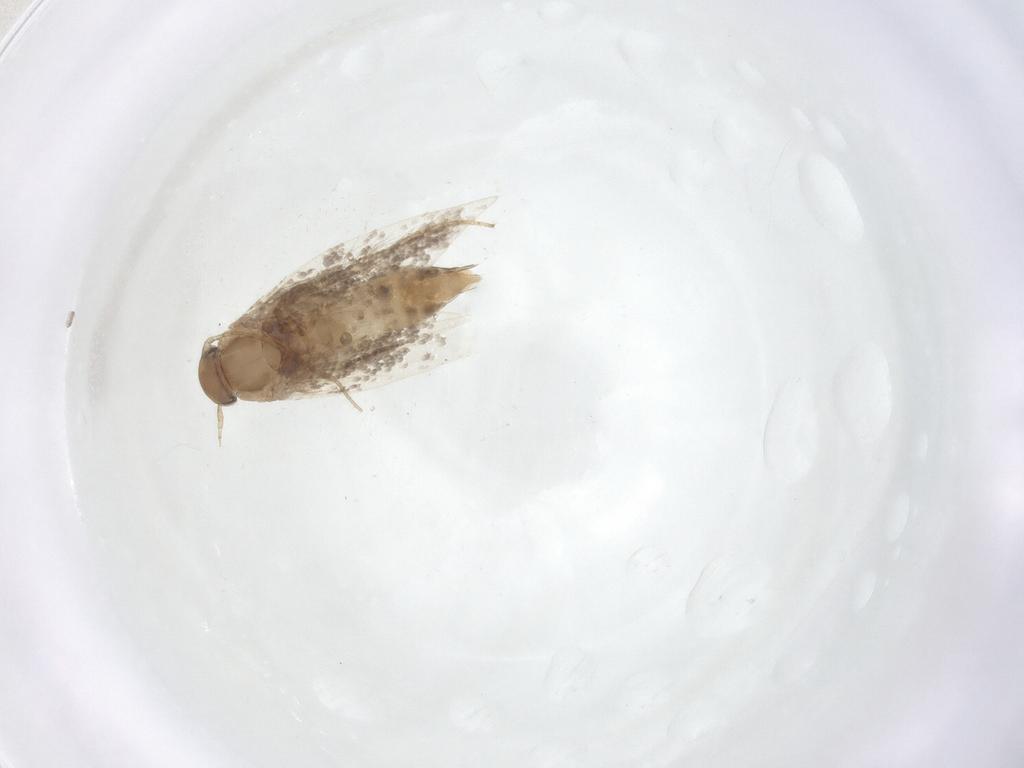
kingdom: Animalia
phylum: Arthropoda
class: Insecta
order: Lepidoptera
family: Elachistidae
